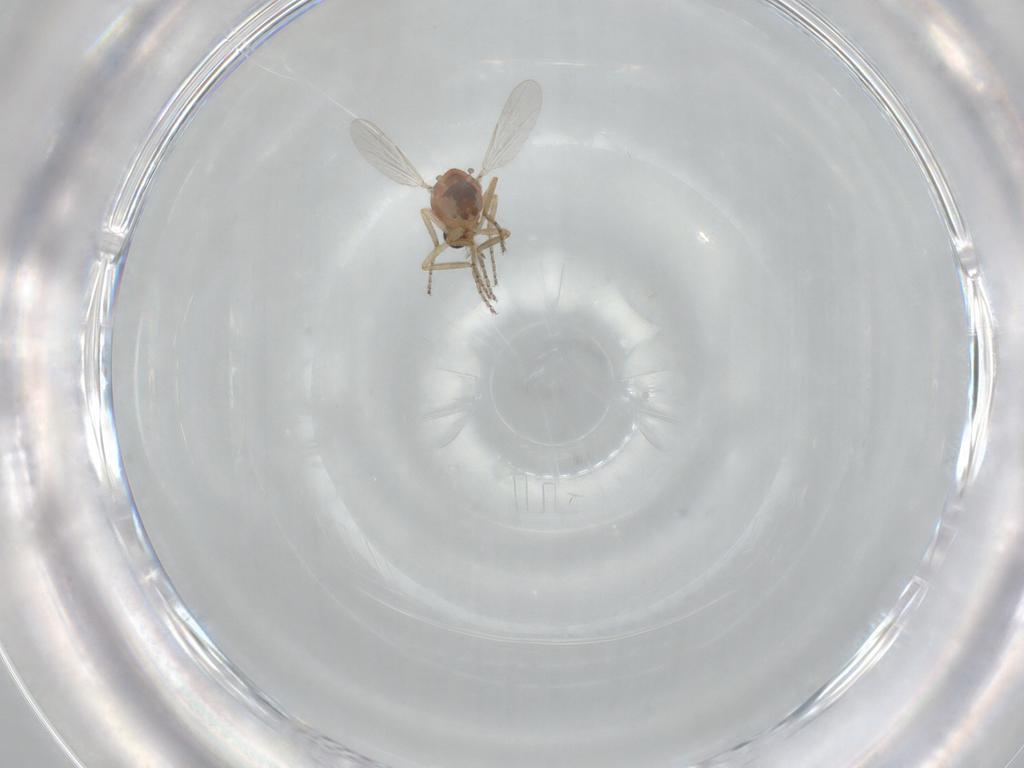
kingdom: Animalia
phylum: Arthropoda
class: Insecta
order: Diptera
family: Ceratopogonidae
